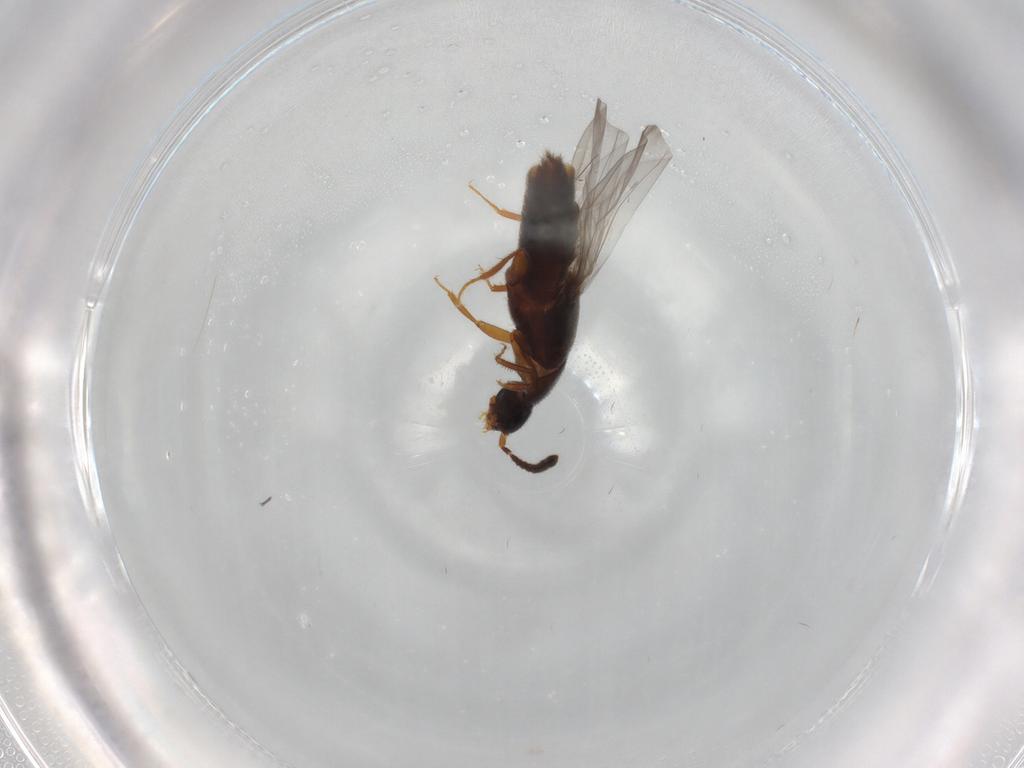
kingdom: Animalia
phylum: Arthropoda
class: Insecta
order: Coleoptera
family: Staphylinidae
